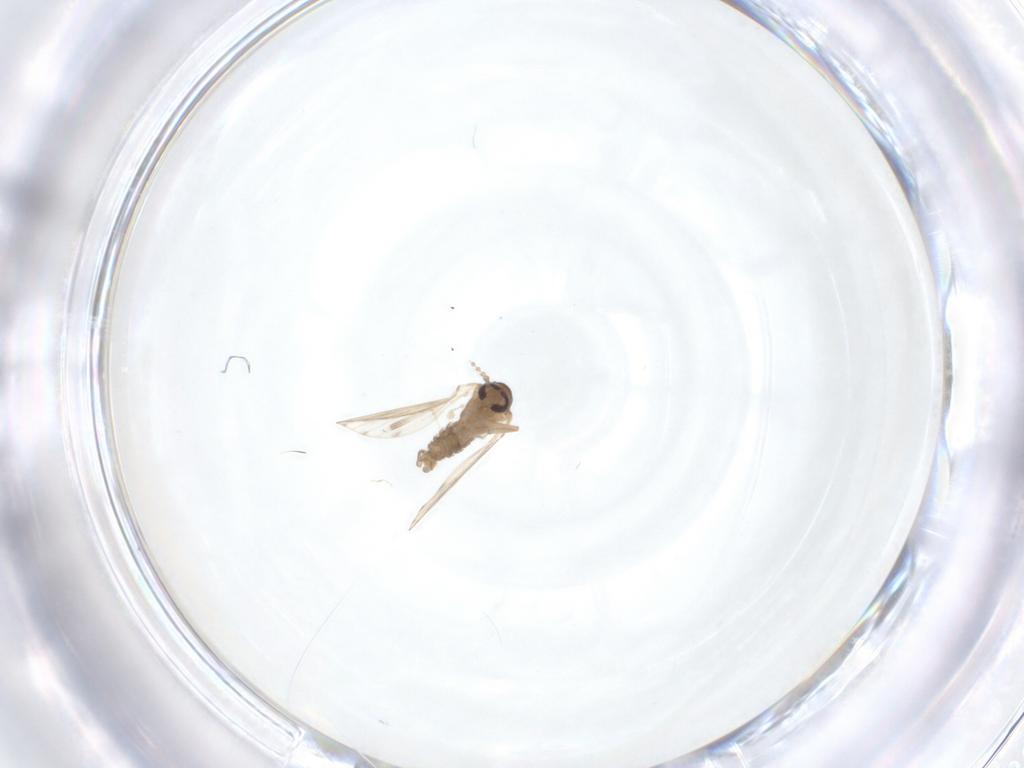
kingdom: Animalia
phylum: Arthropoda
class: Insecta
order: Diptera
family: Psychodidae
